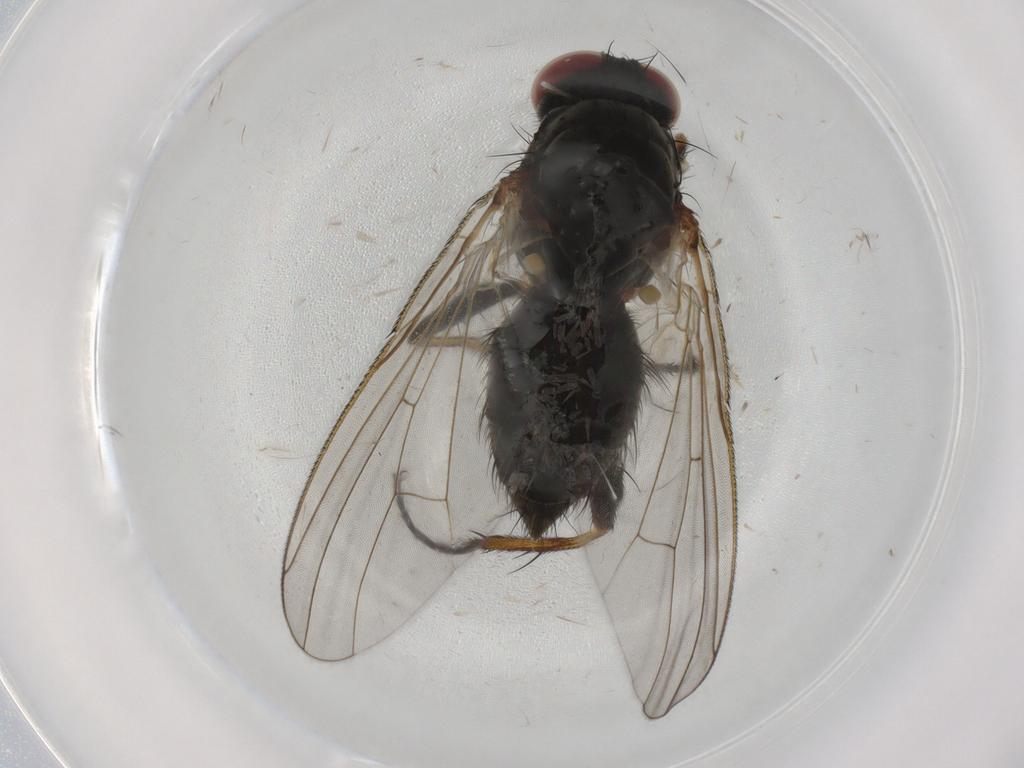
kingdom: Animalia
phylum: Arthropoda
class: Insecta
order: Diptera
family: Cecidomyiidae
